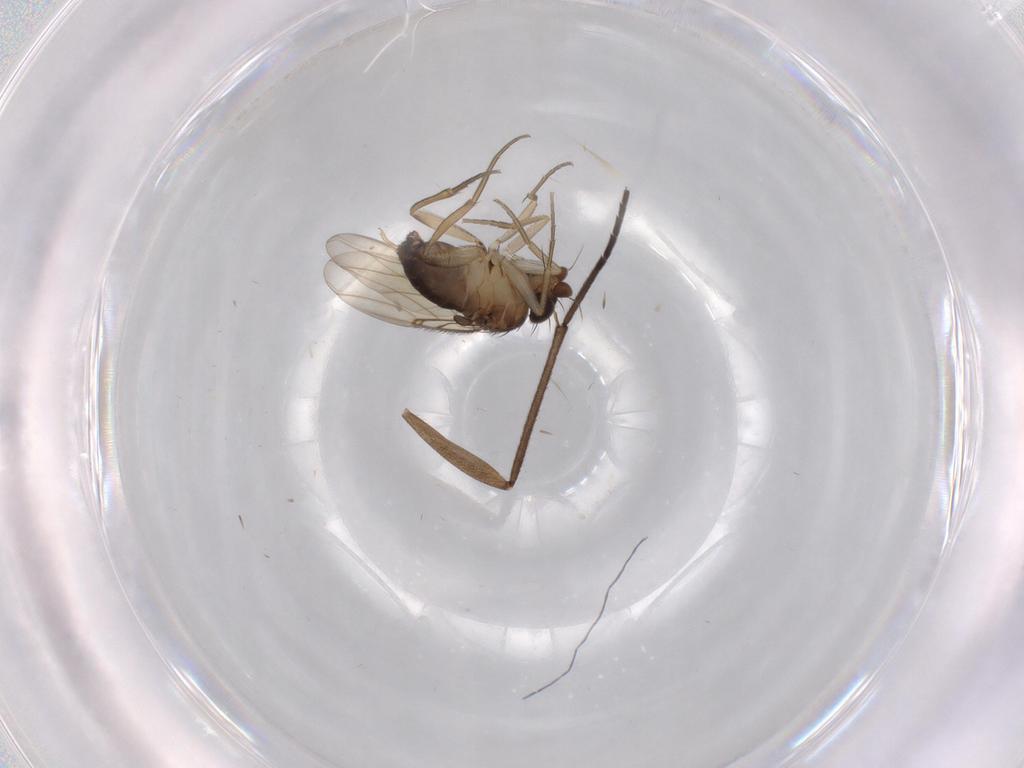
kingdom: Animalia
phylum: Arthropoda
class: Insecta
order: Diptera
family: Phoridae
